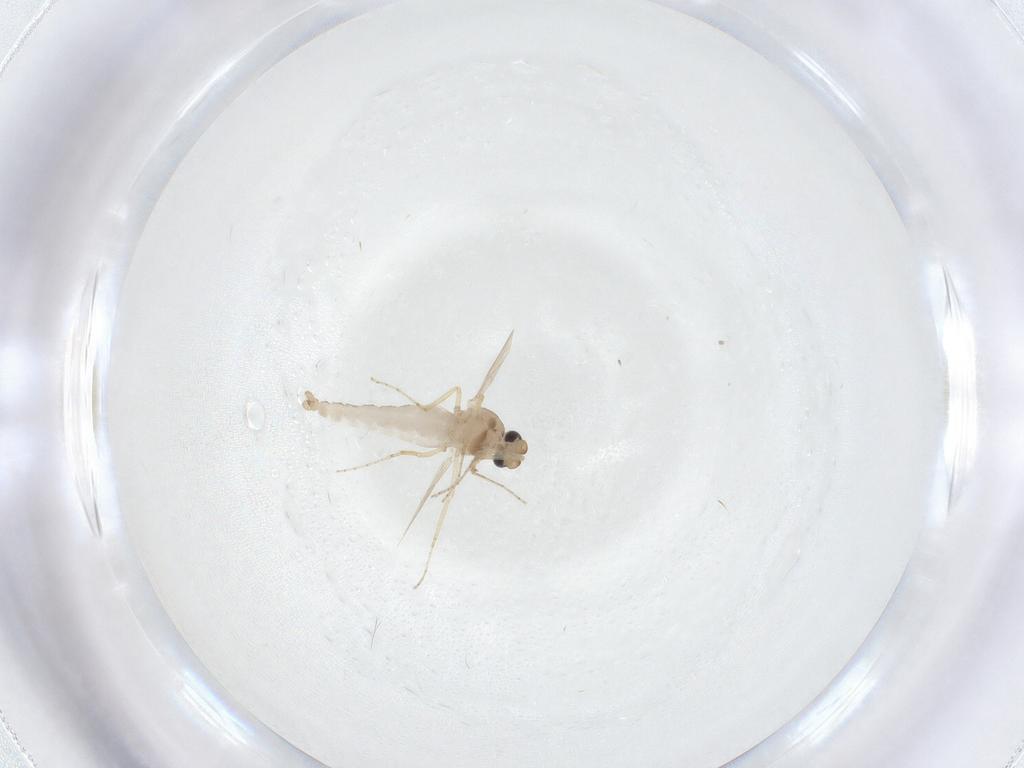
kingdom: Animalia
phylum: Arthropoda
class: Insecta
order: Diptera
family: Ceratopogonidae
